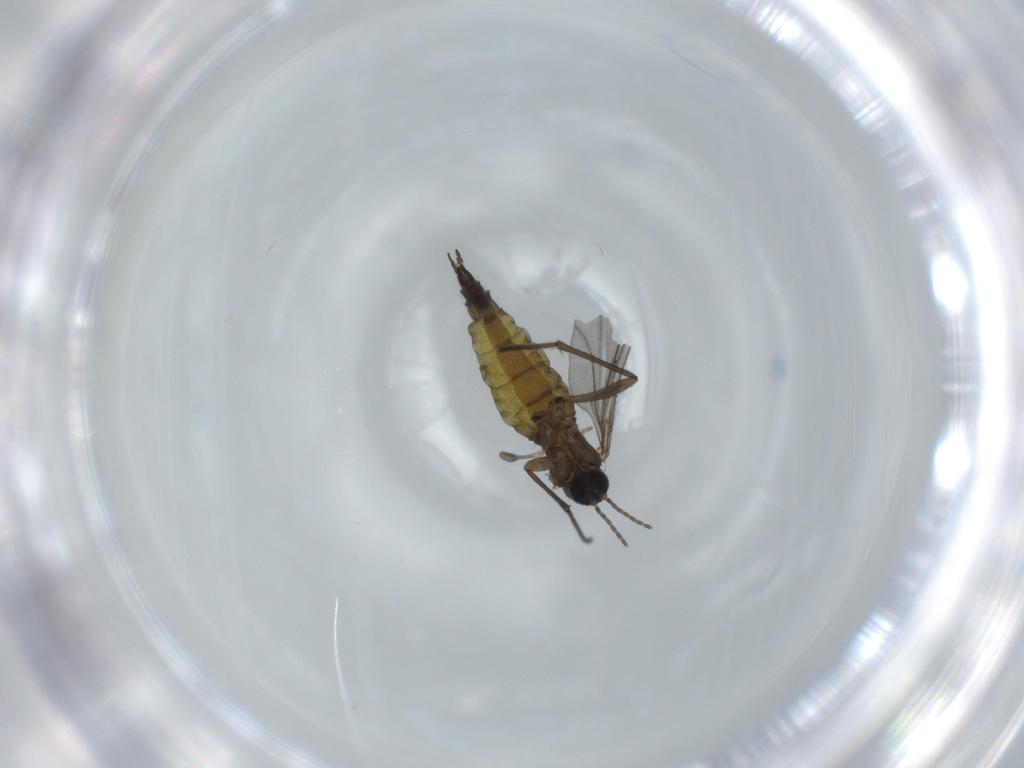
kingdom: Animalia
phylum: Arthropoda
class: Insecta
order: Diptera
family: Sciaridae
